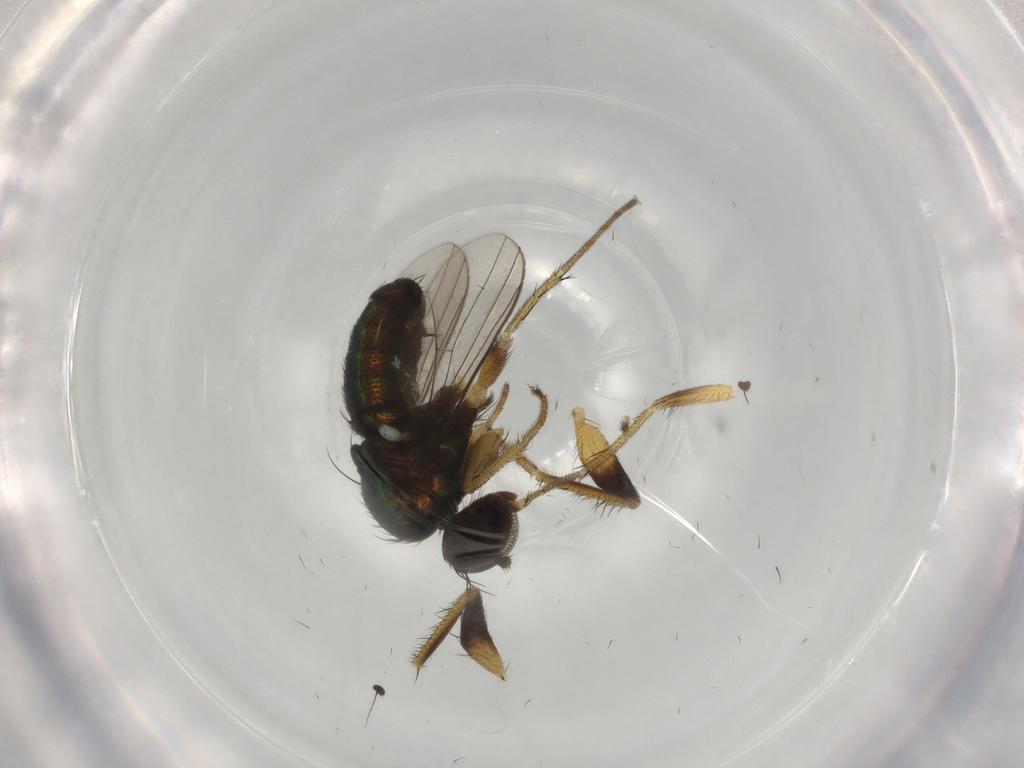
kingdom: Animalia
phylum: Arthropoda
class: Insecta
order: Diptera
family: Dolichopodidae
